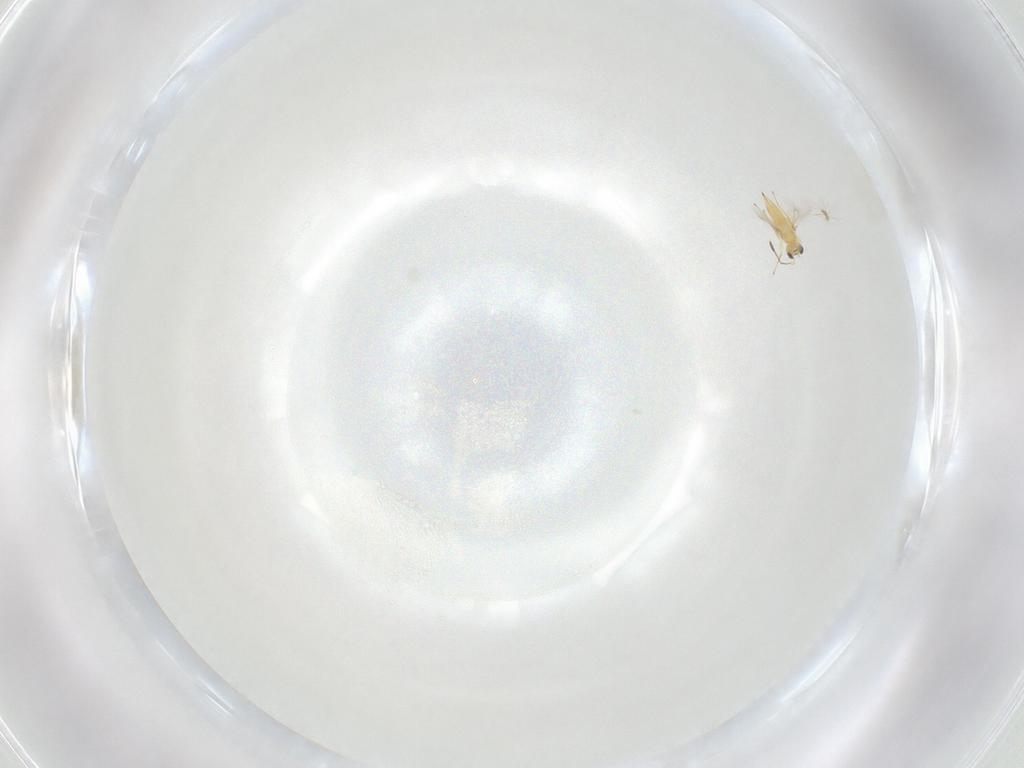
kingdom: Animalia
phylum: Arthropoda
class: Insecta
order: Hymenoptera
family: Mymaridae
